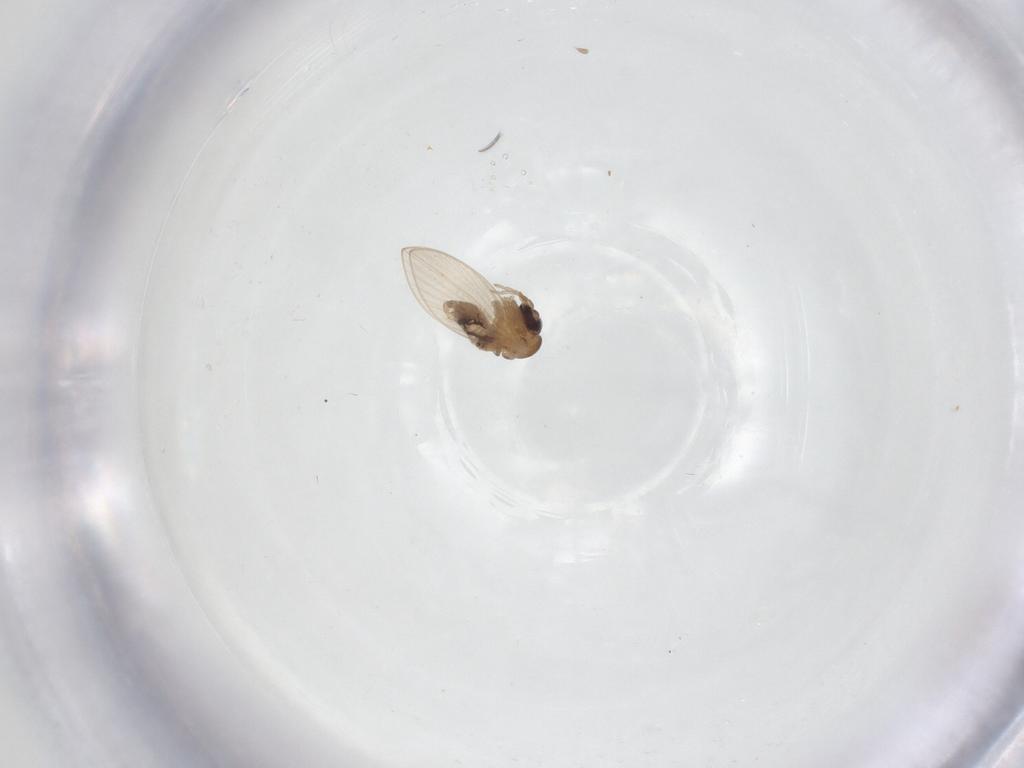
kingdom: Animalia
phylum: Arthropoda
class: Insecta
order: Diptera
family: Psychodidae
